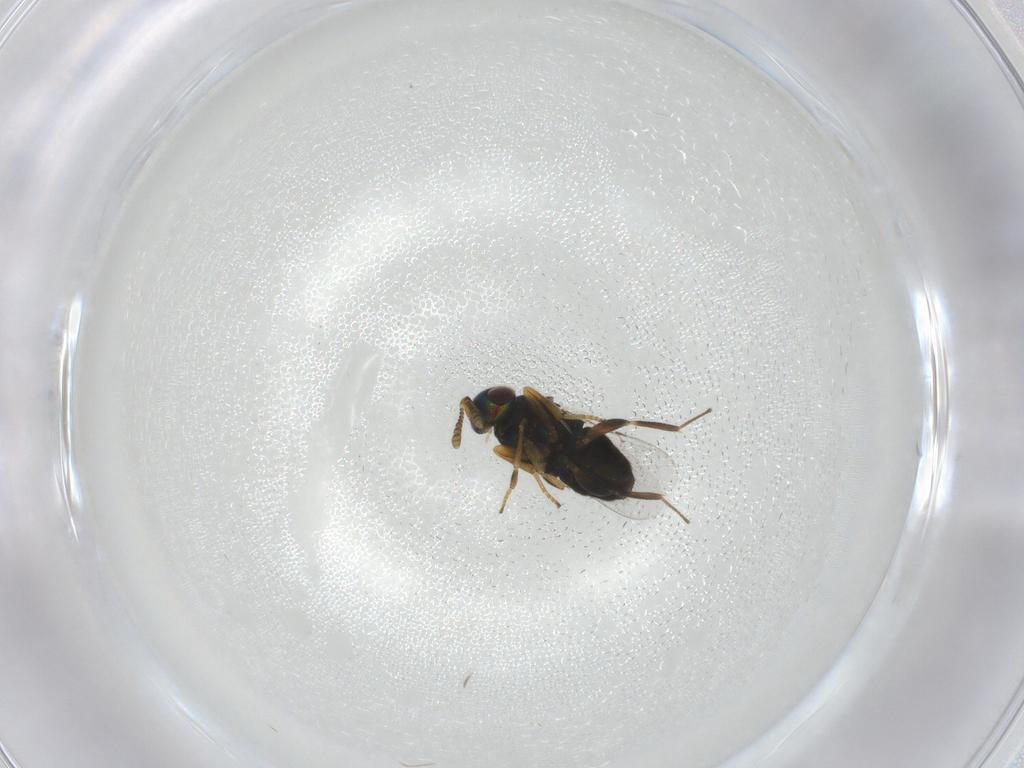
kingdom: Animalia
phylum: Arthropoda
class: Insecta
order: Hymenoptera
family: Encyrtidae
